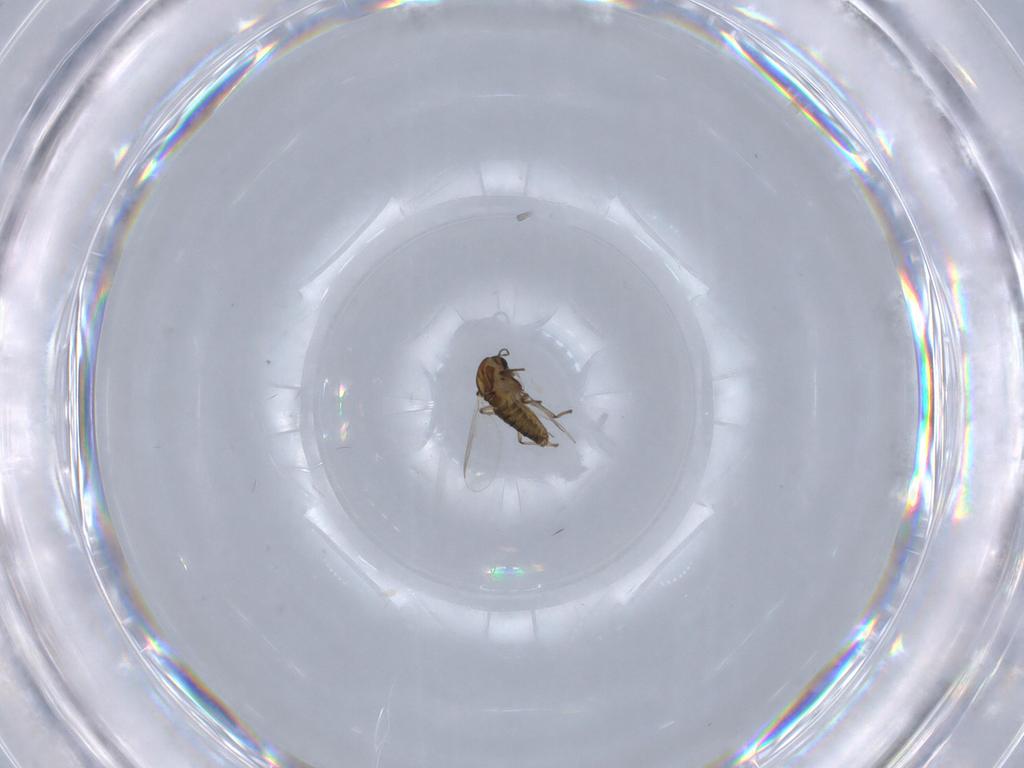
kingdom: Animalia
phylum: Arthropoda
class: Insecta
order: Diptera
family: Chironomidae
